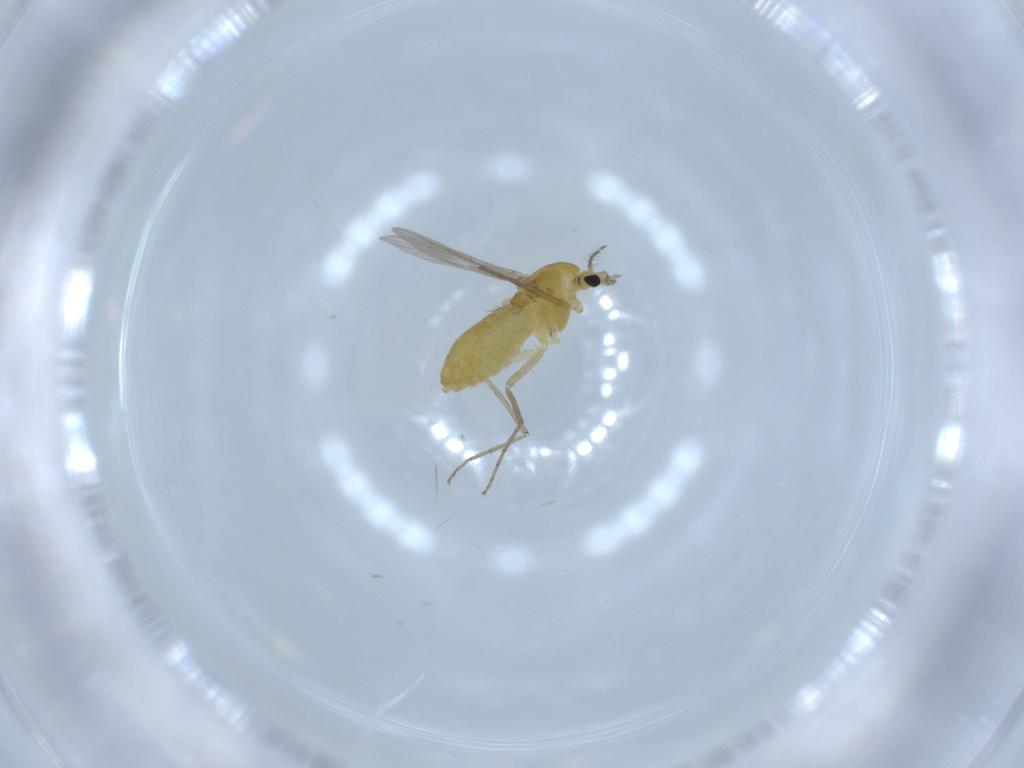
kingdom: Animalia
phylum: Arthropoda
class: Insecta
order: Diptera
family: Chironomidae
